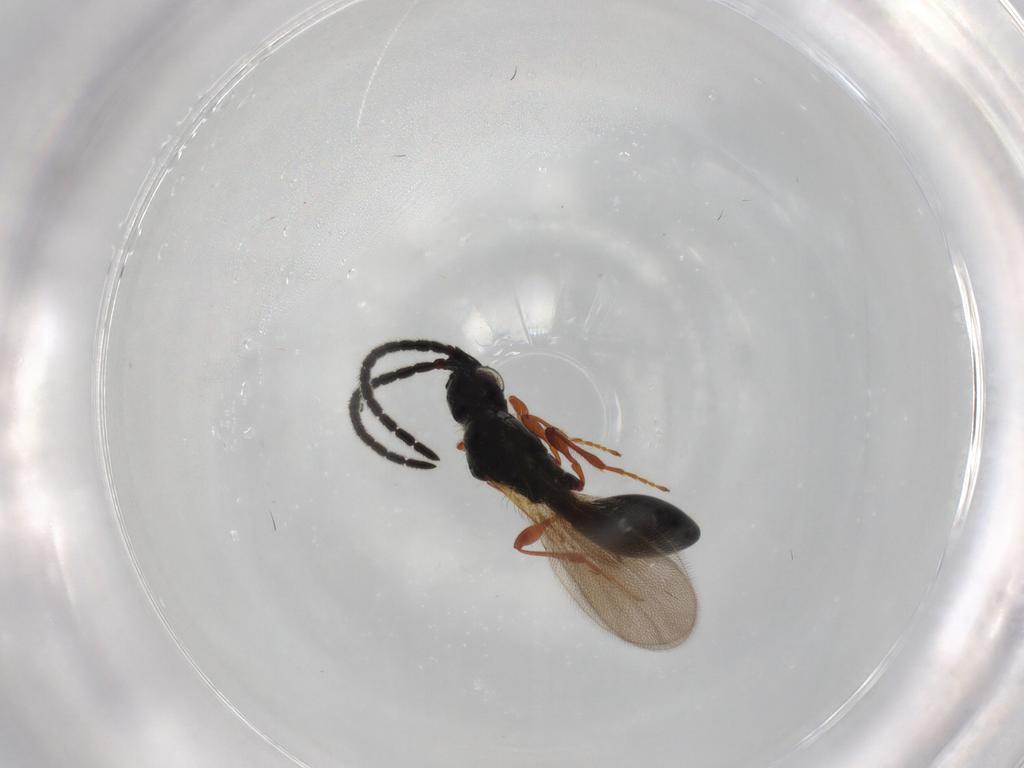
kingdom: Animalia
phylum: Arthropoda
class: Insecta
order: Hymenoptera
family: Diapriidae
